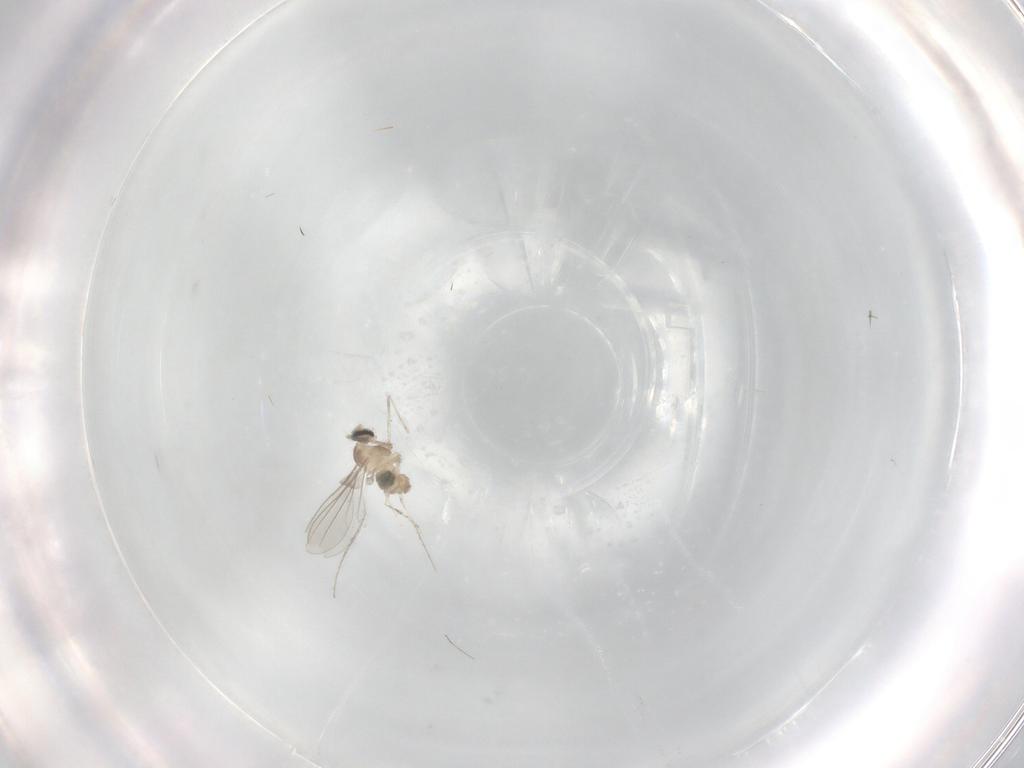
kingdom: Animalia
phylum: Arthropoda
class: Insecta
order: Diptera
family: Cecidomyiidae
